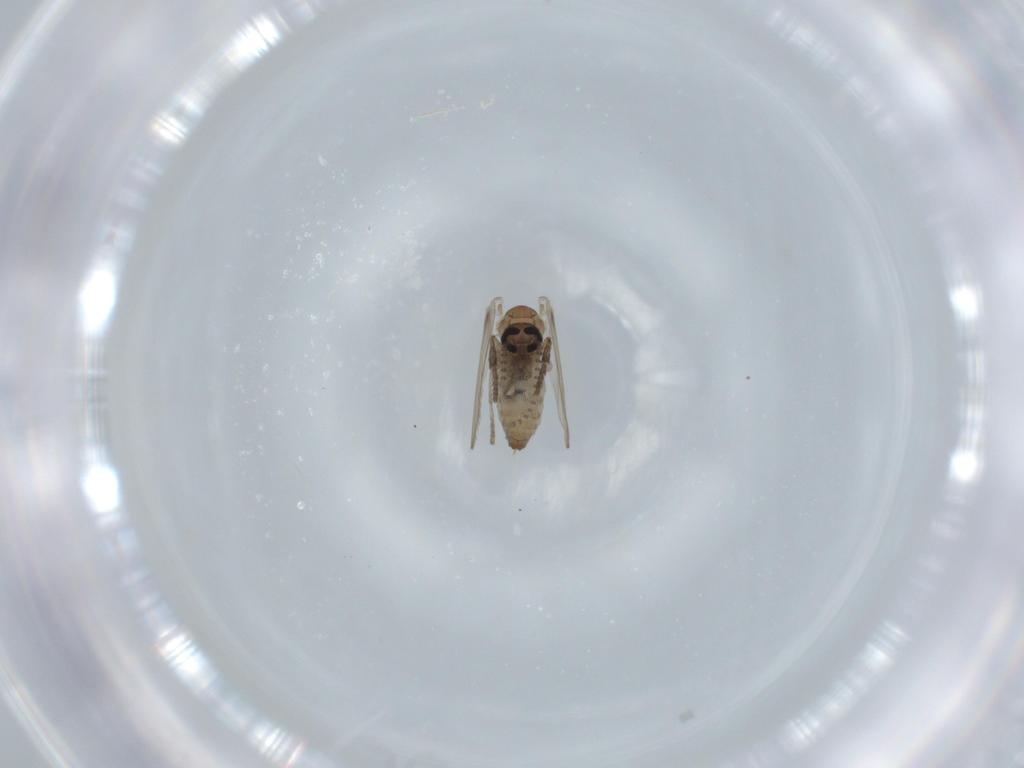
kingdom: Animalia
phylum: Arthropoda
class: Insecta
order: Diptera
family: Psychodidae
